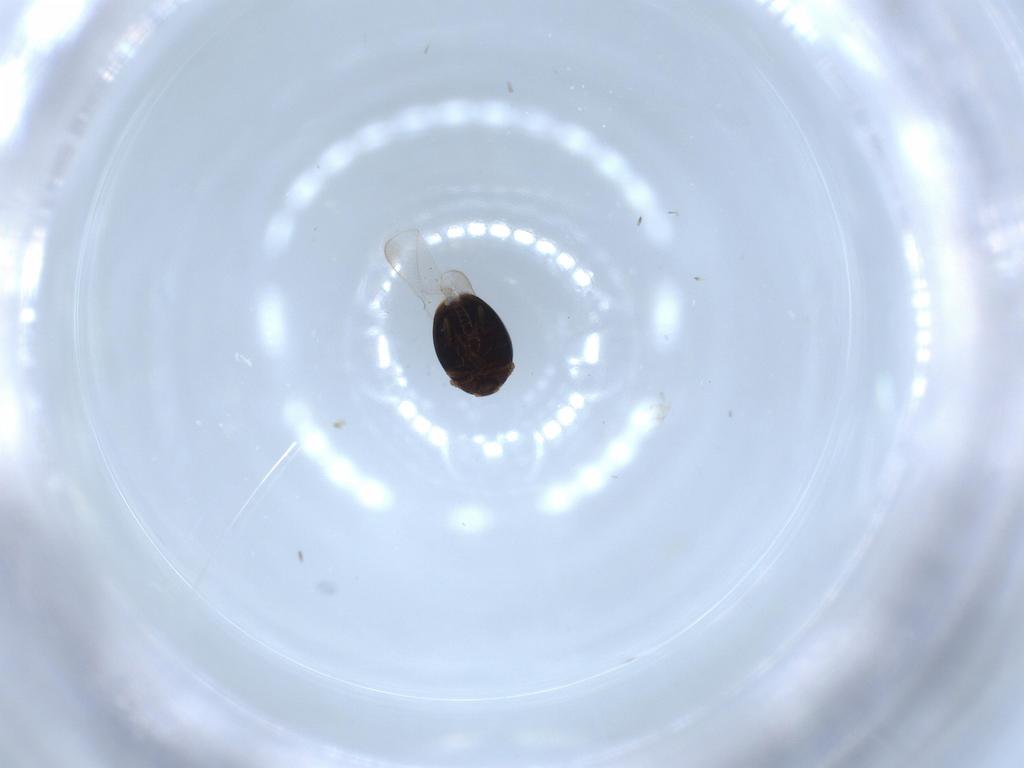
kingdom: Animalia
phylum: Arthropoda
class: Insecta
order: Coleoptera
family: Corylophidae
